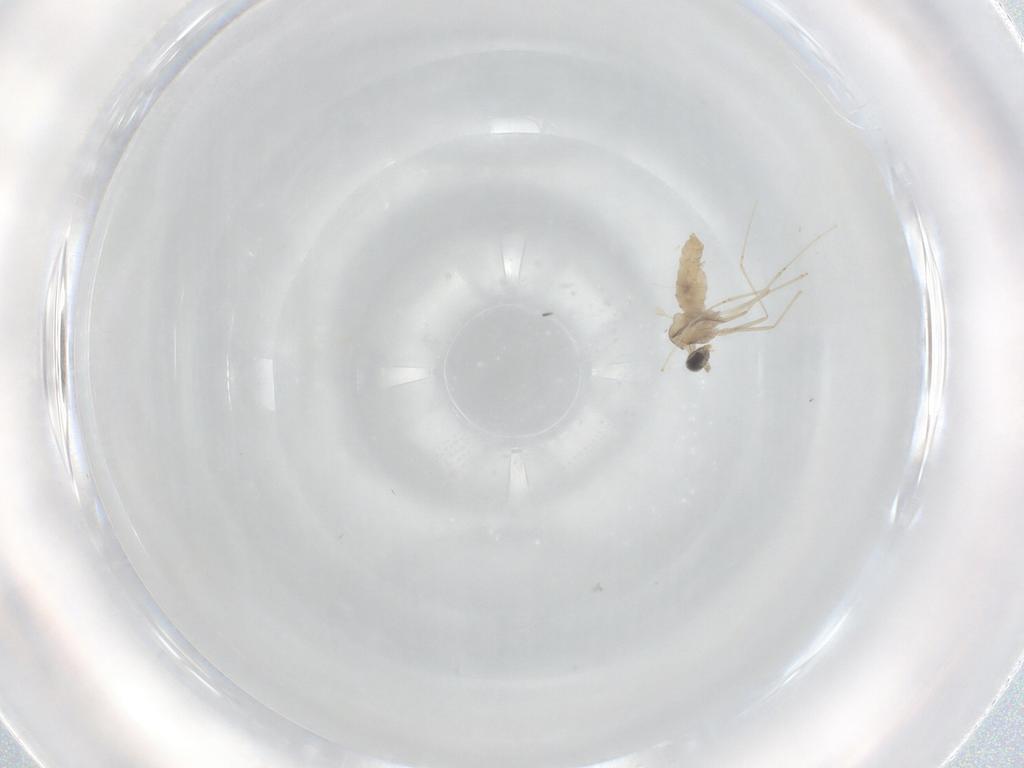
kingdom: Animalia
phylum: Arthropoda
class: Insecta
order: Diptera
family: Cecidomyiidae
